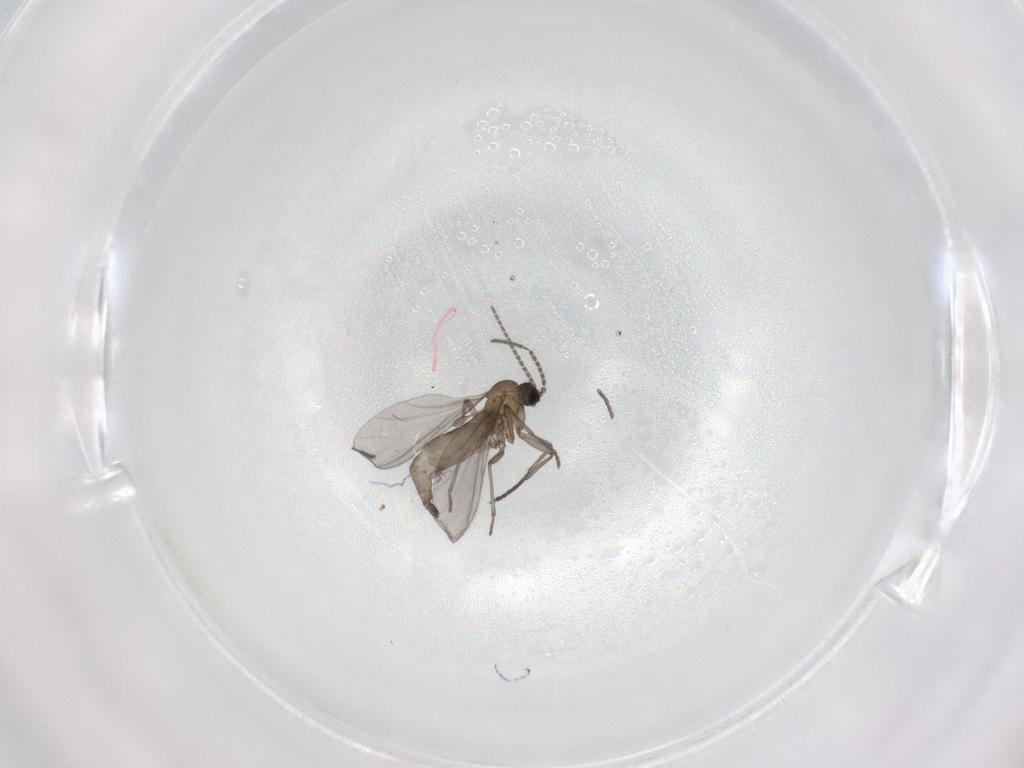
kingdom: Animalia
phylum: Arthropoda
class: Insecta
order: Diptera
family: Sciaridae
